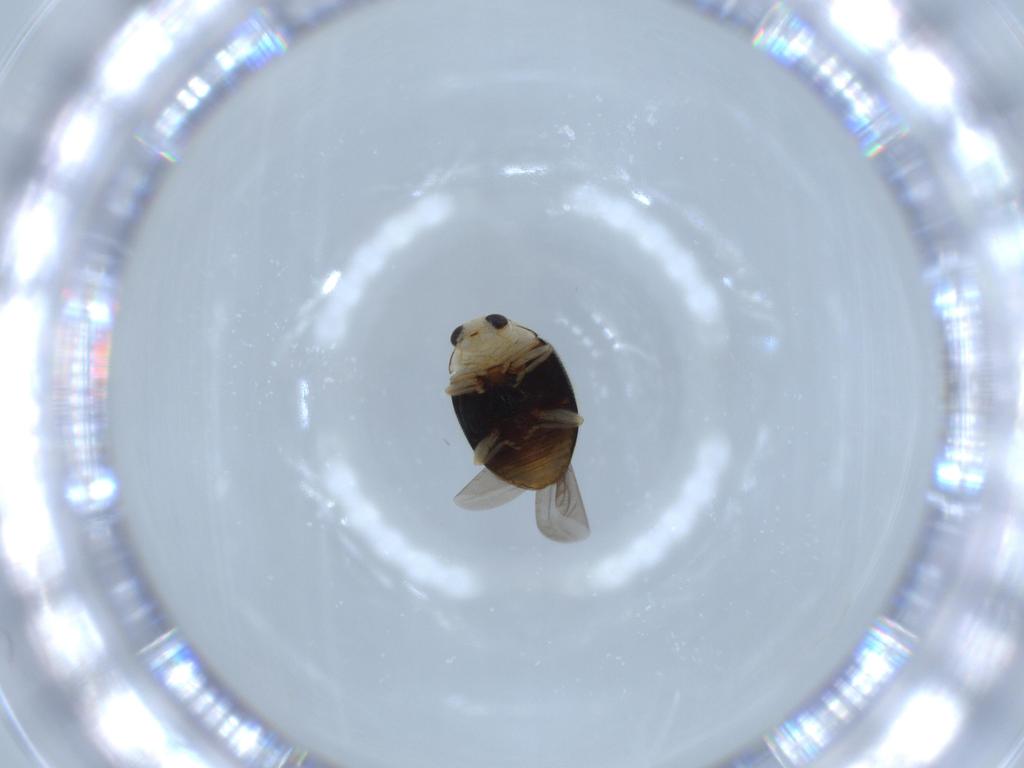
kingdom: Animalia
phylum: Arthropoda
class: Insecta
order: Coleoptera
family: Coccinellidae
